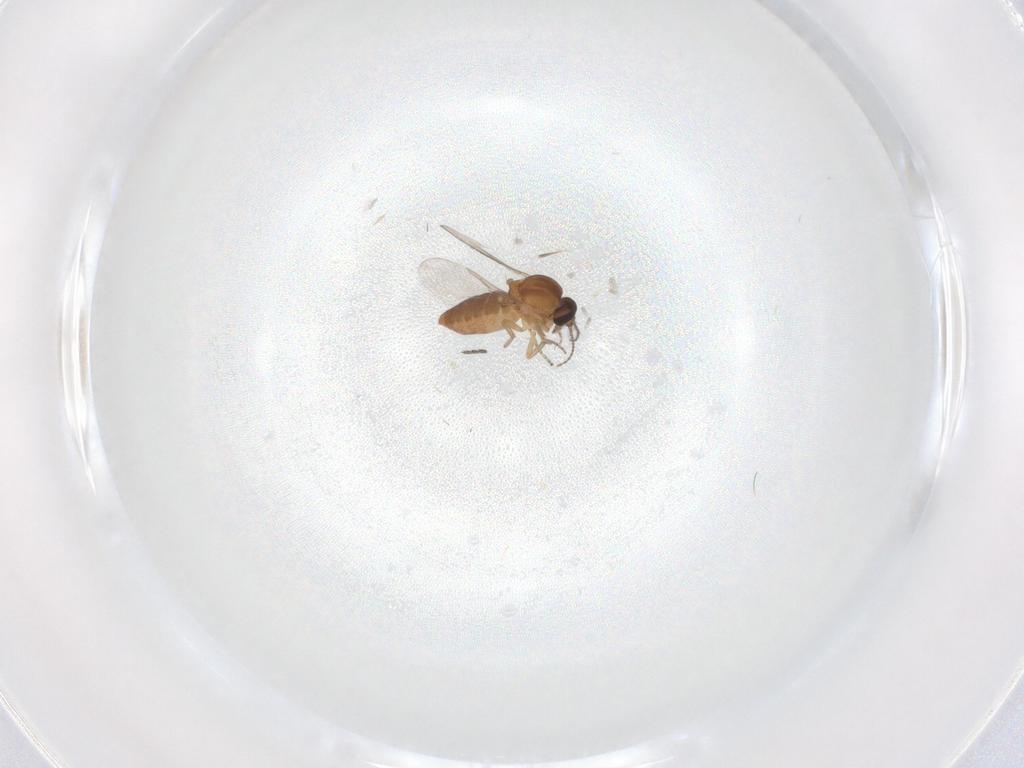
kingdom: Animalia
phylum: Arthropoda
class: Insecta
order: Diptera
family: Ceratopogonidae
